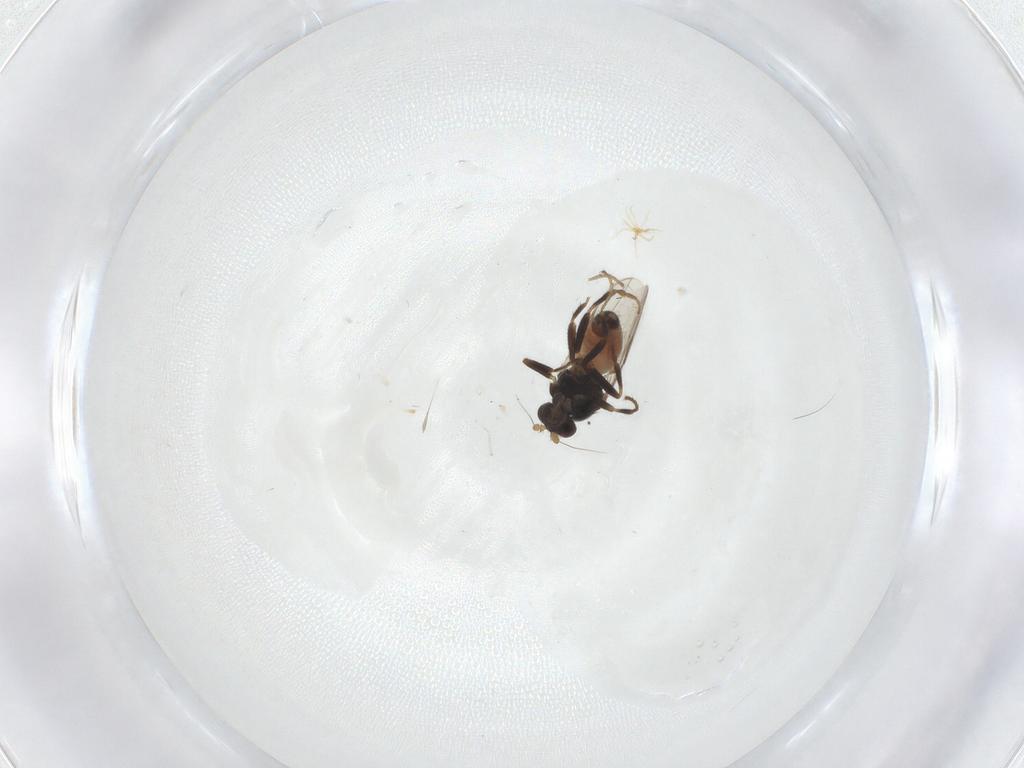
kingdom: Animalia
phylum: Arthropoda
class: Insecta
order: Diptera
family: Sphaeroceridae
